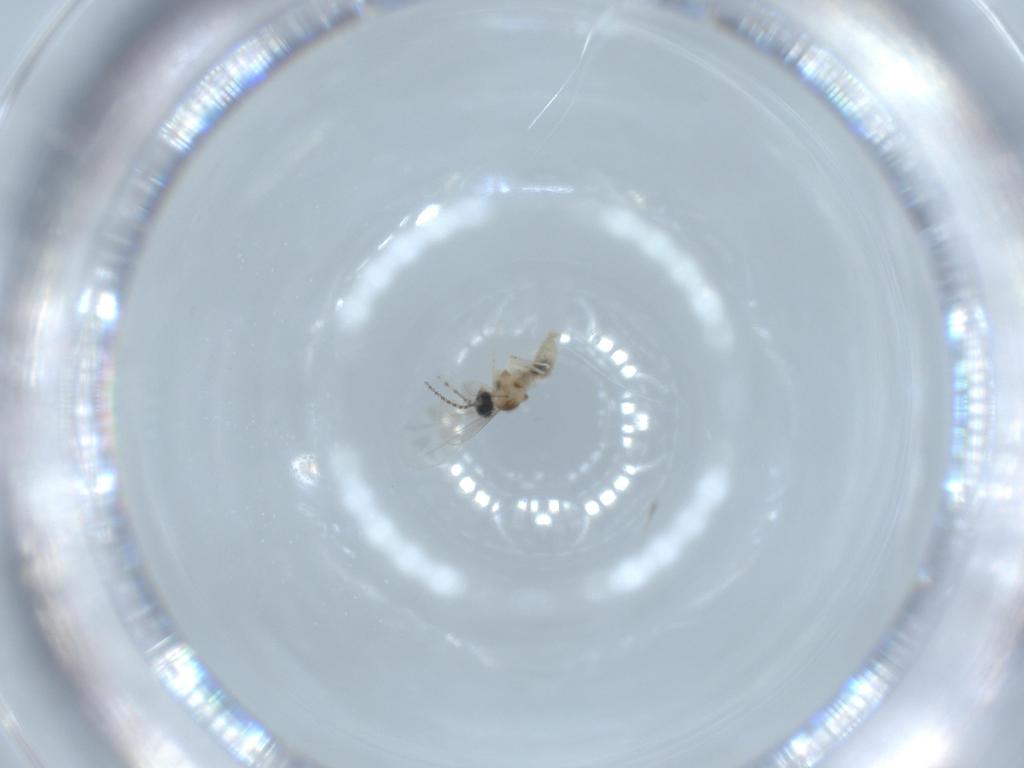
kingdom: Animalia
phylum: Arthropoda
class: Insecta
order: Diptera
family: Cecidomyiidae
